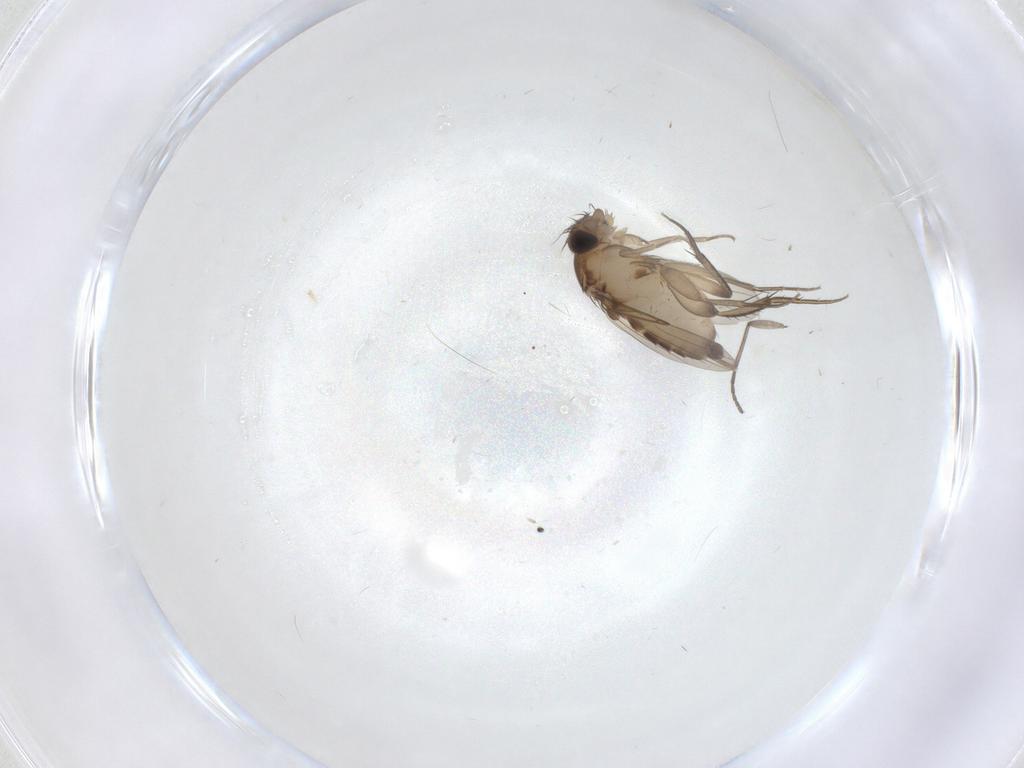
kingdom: Animalia
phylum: Arthropoda
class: Insecta
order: Diptera
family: Phoridae
